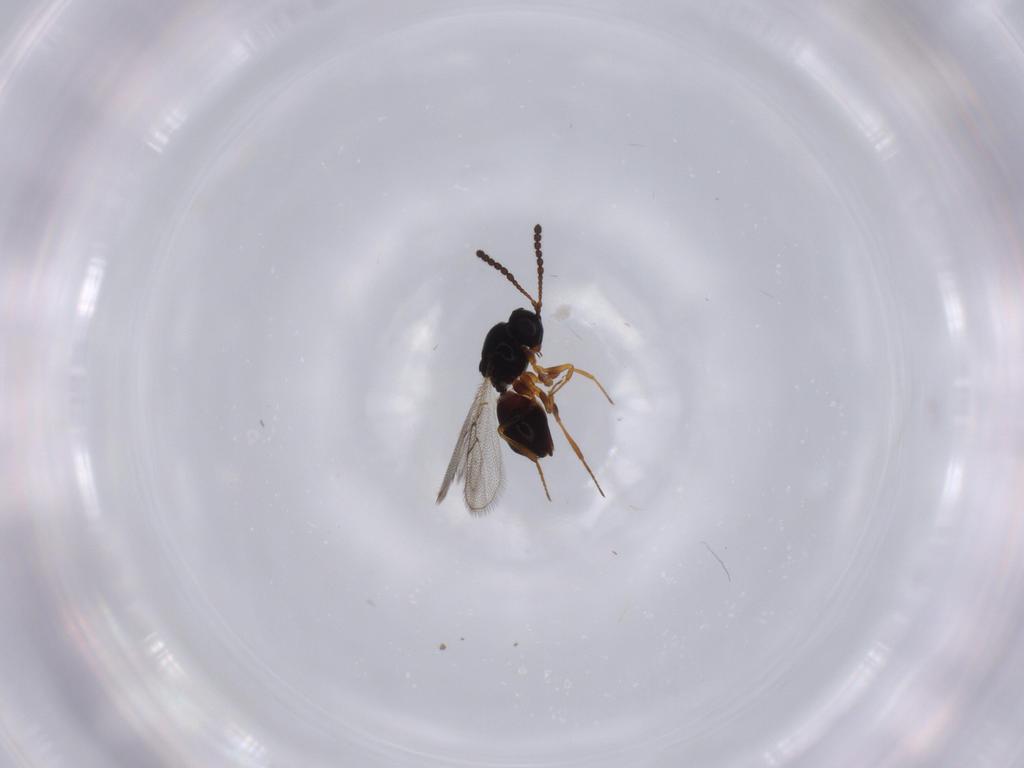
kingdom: Animalia
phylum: Arthropoda
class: Insecta
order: Hymenoptera
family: Figitidae
